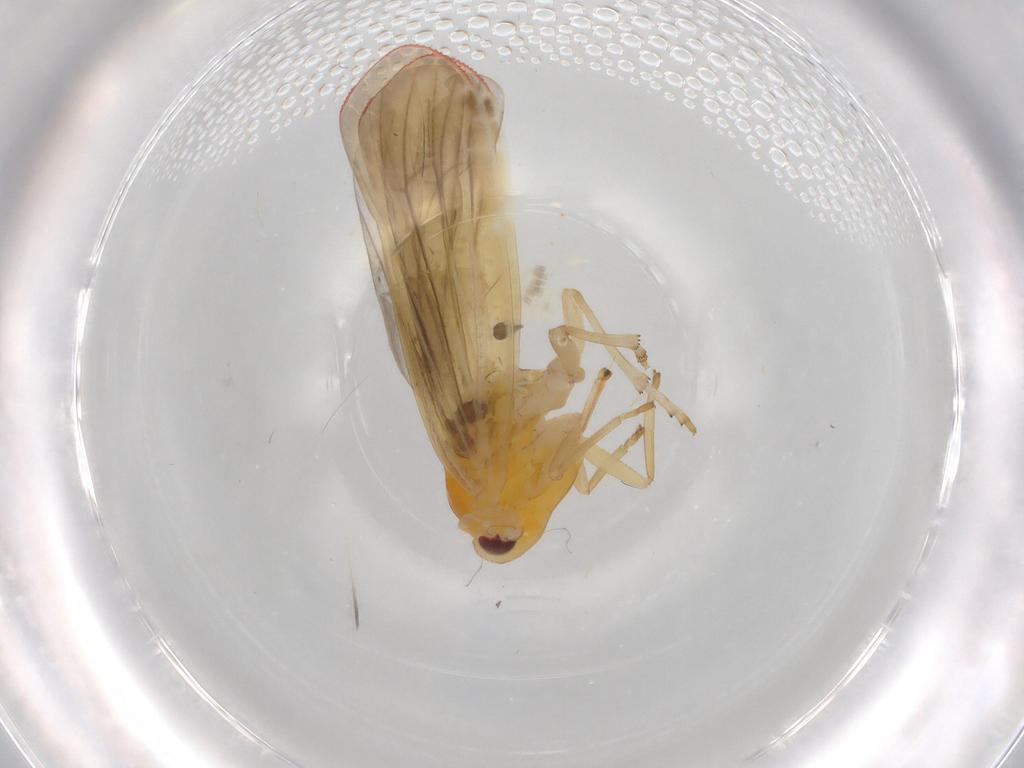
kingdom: Animalia
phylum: Arthropoda
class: Insecta
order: Hemiptera
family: Derbidae
